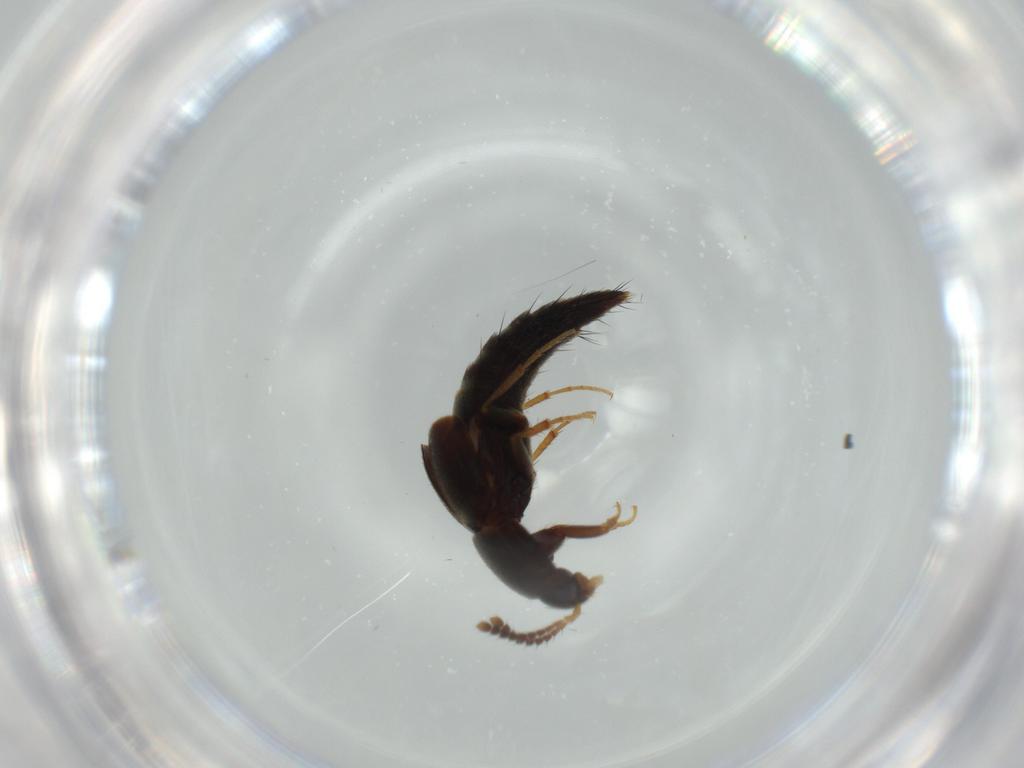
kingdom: Animalia
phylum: Arthropoda
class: Insecta
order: Coleoptera
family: Staphylinidae
